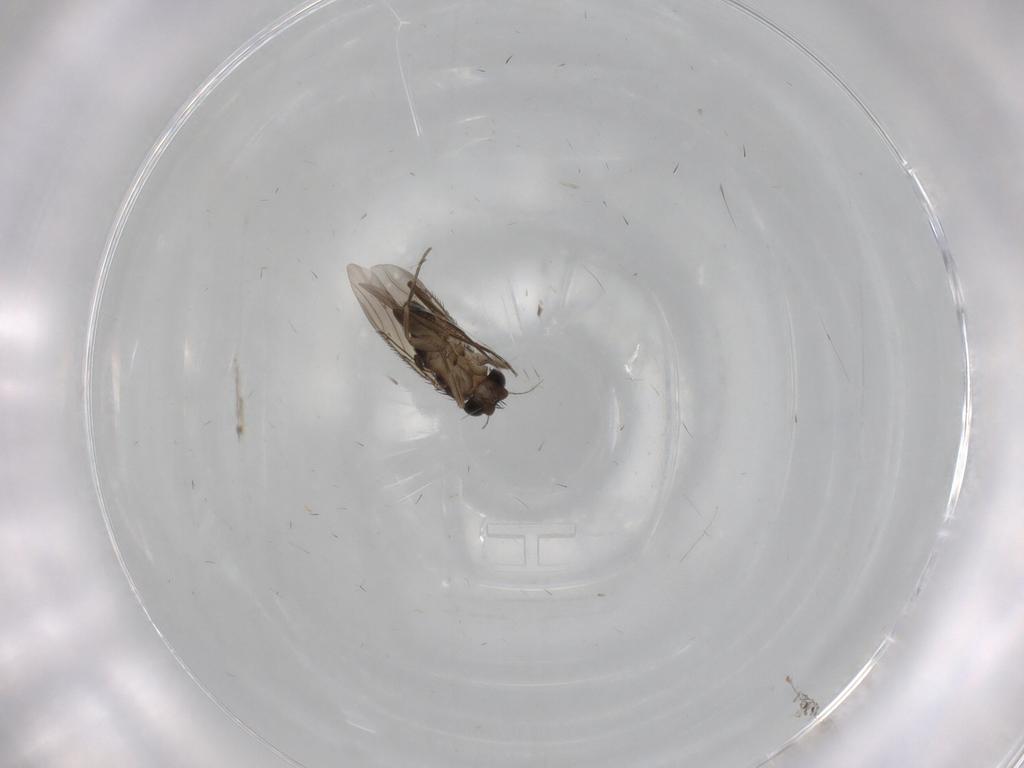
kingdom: Animalia
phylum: Arthropoda
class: Insecta
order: Diptera
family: Phoridae
